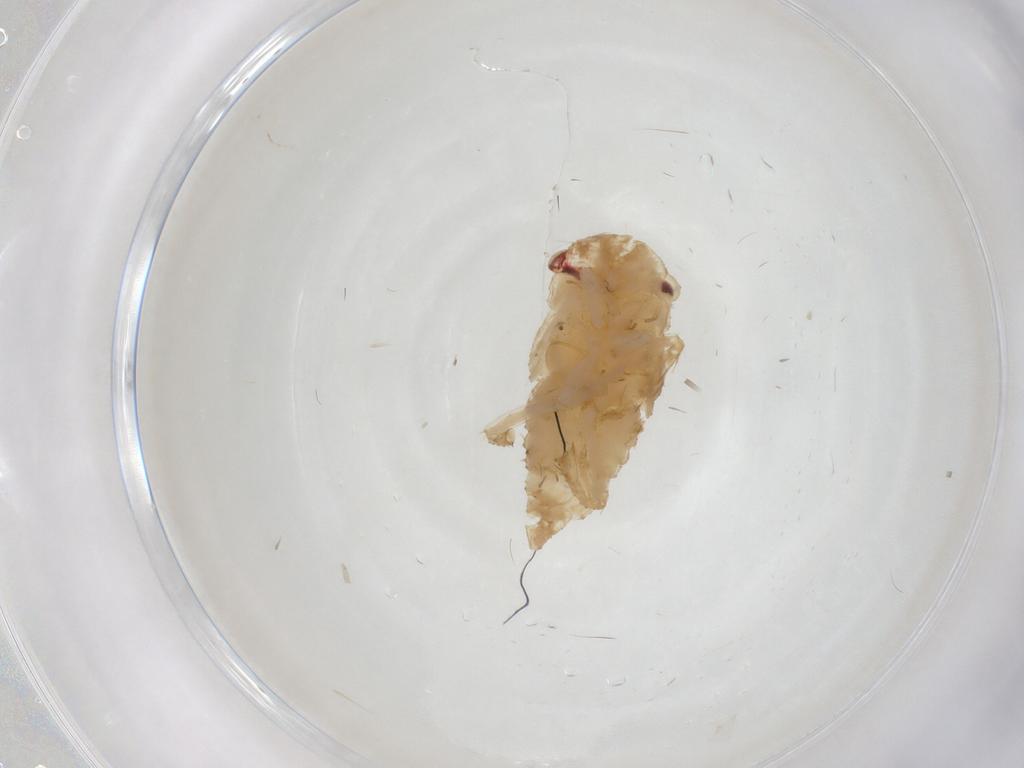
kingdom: Animalia
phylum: Arthropoda
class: Insecta
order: Hemiptera
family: Cicadellidae
